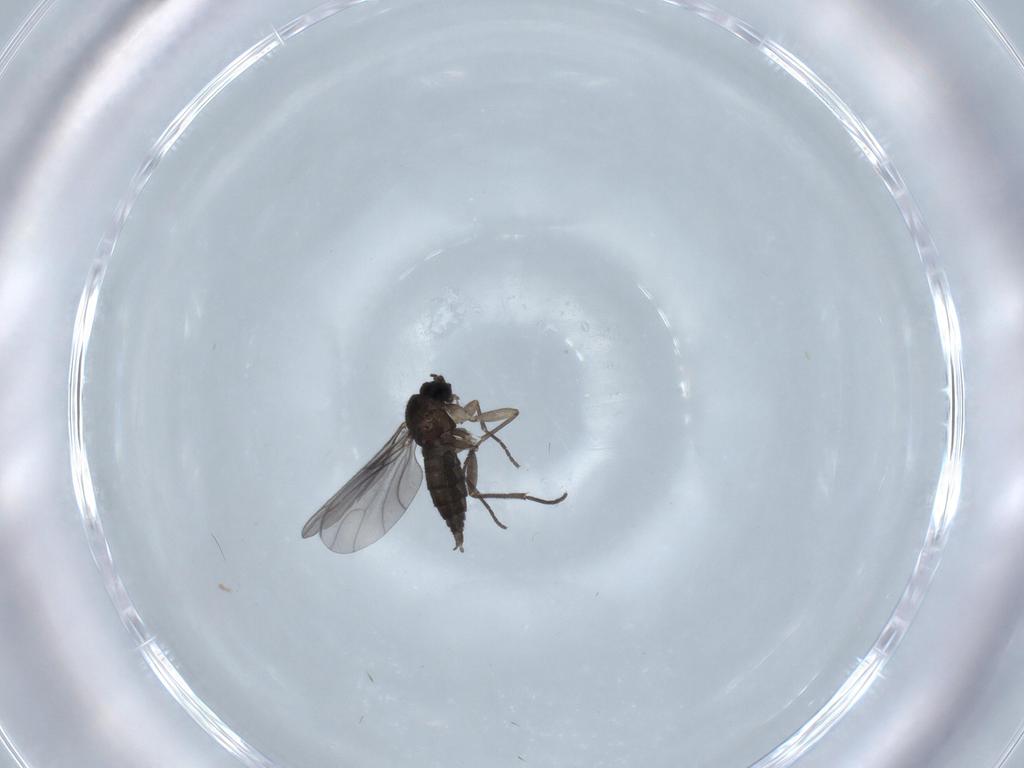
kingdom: Animalia
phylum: Arthropoda
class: Insecta
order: Diptera
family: Sciaridae
